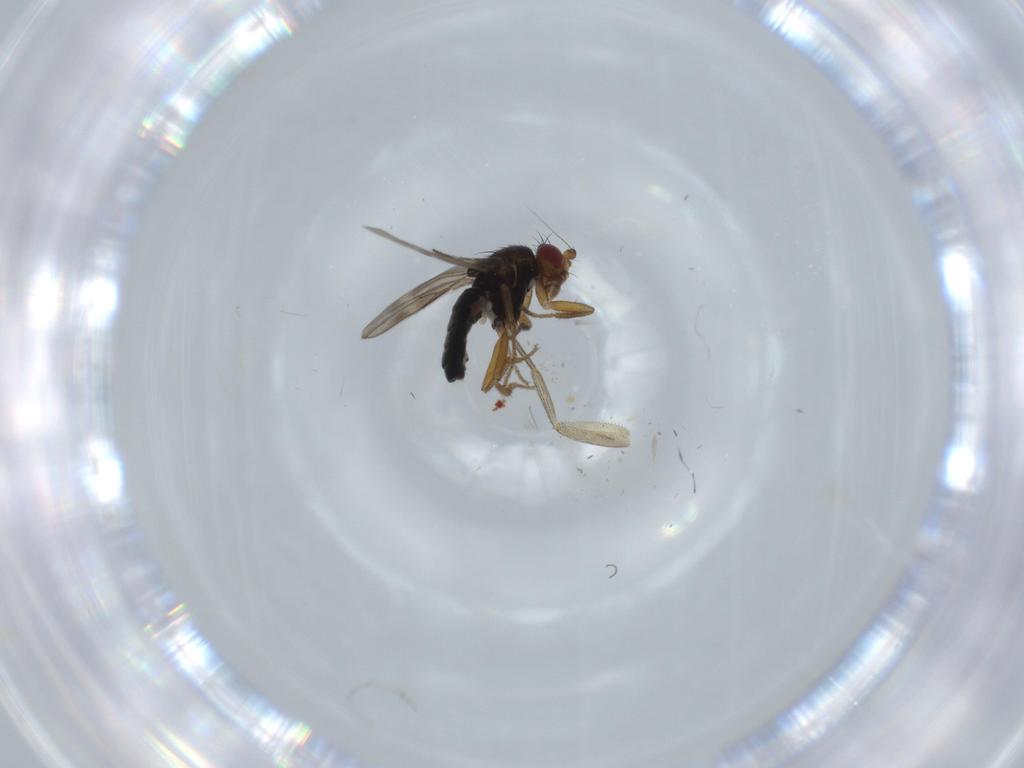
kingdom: Animalia
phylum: Arthropoda
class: Insecta
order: Diptera
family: Sphaeroceridae
